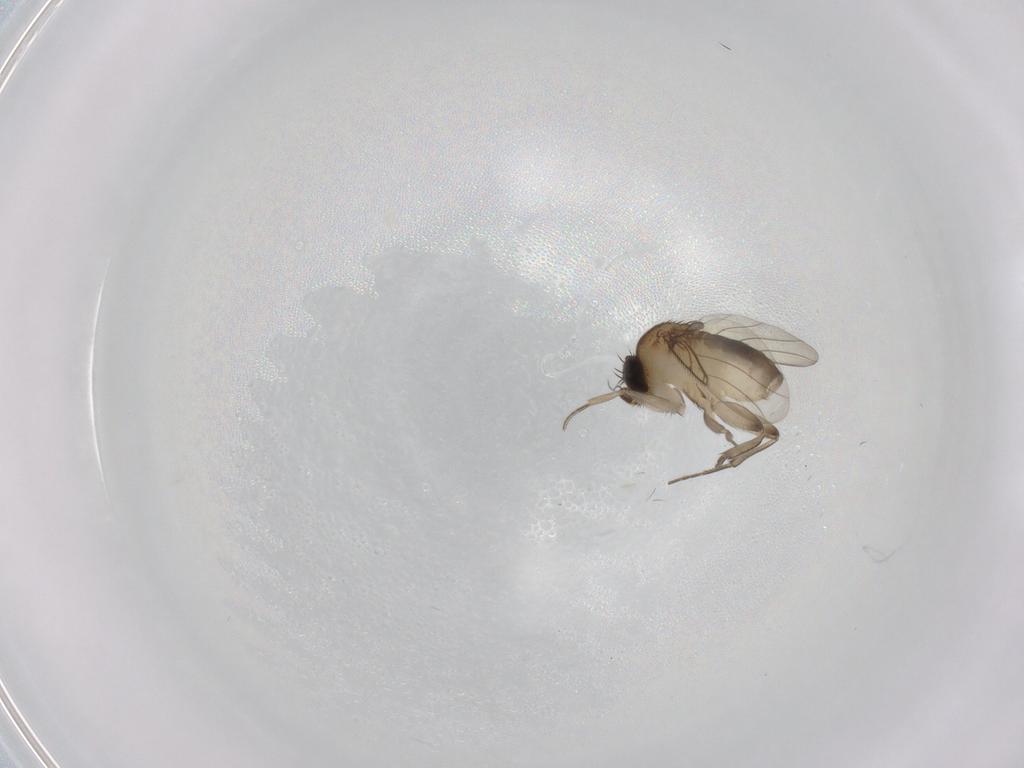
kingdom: Animalia
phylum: Arthropoda
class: Insecta
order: Diptera
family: Phoridae
